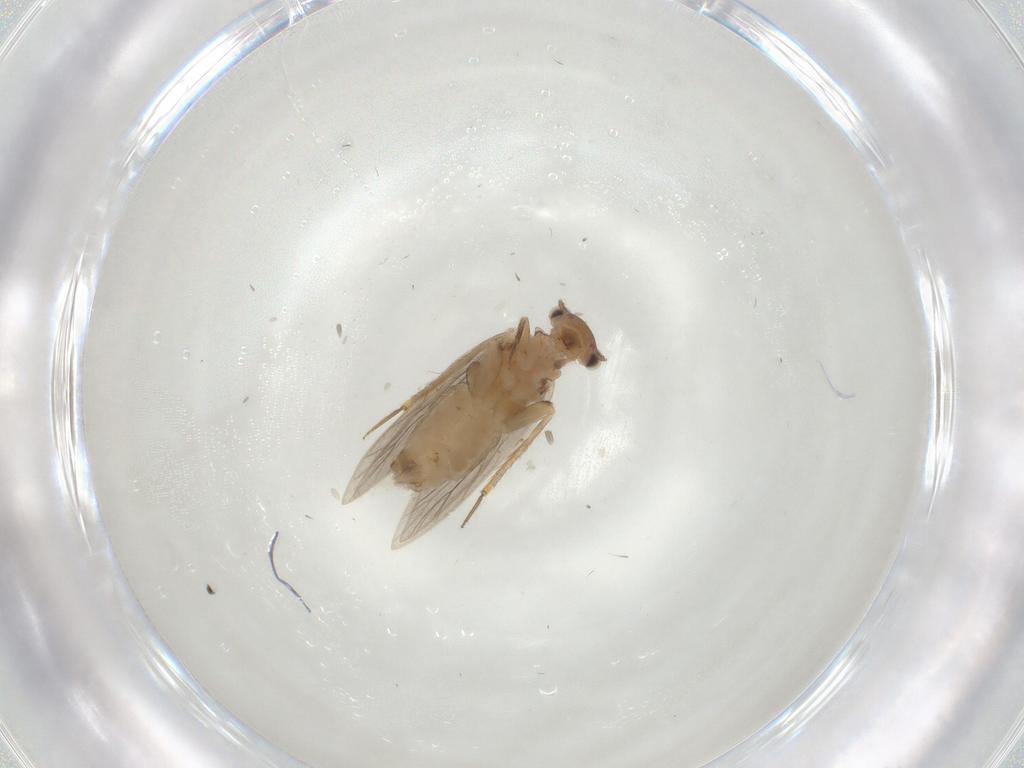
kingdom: Animalia
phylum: Arthropoda
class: Insecta
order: Psocodea
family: Lepidopsocidae
